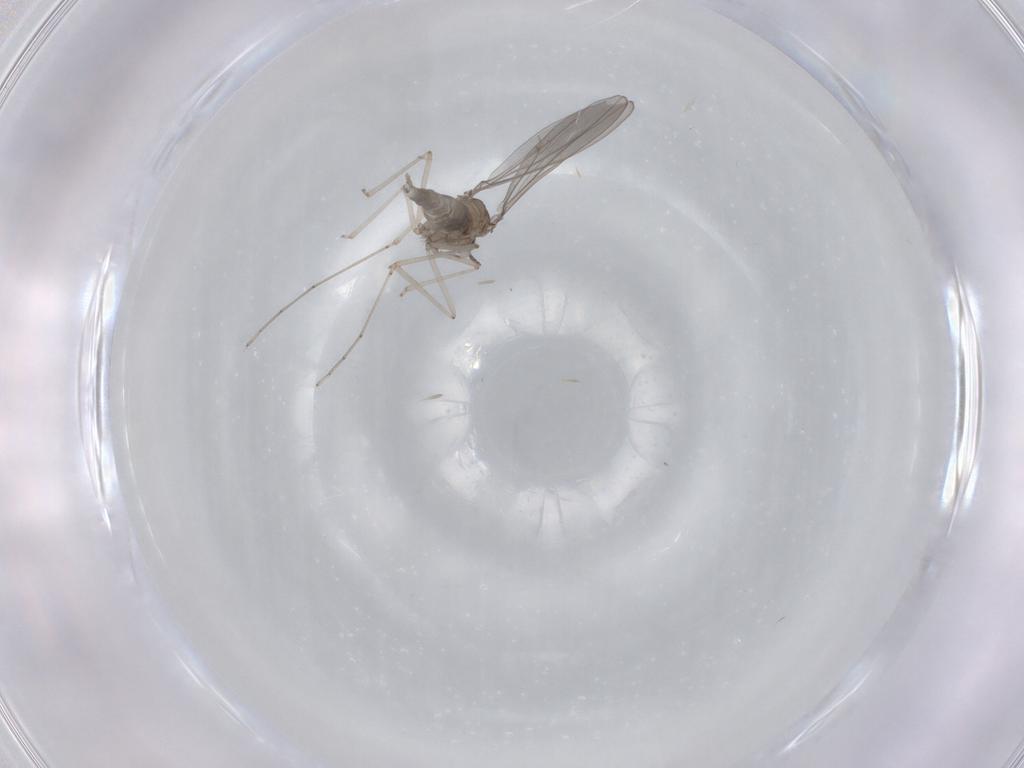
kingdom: Animalia
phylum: Arthropoda
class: Insecta
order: Diptera
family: Cecidomyiidae
